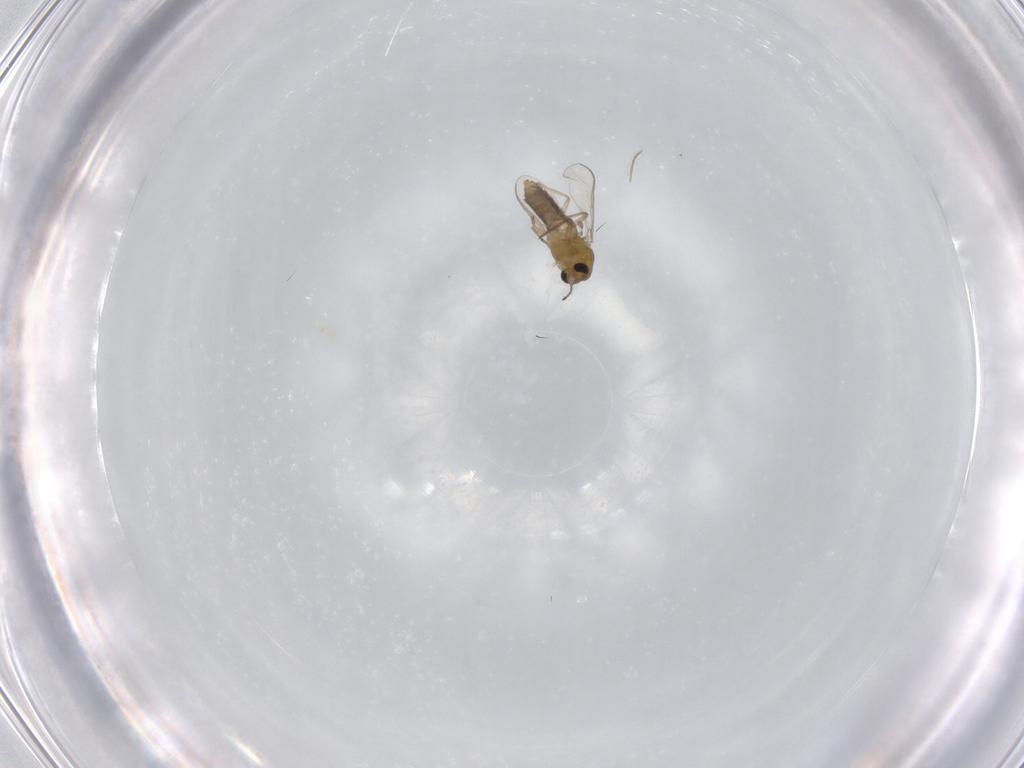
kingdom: Animalia
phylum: Arthropoda
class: Insecta
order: Diptera
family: Chironomidae
